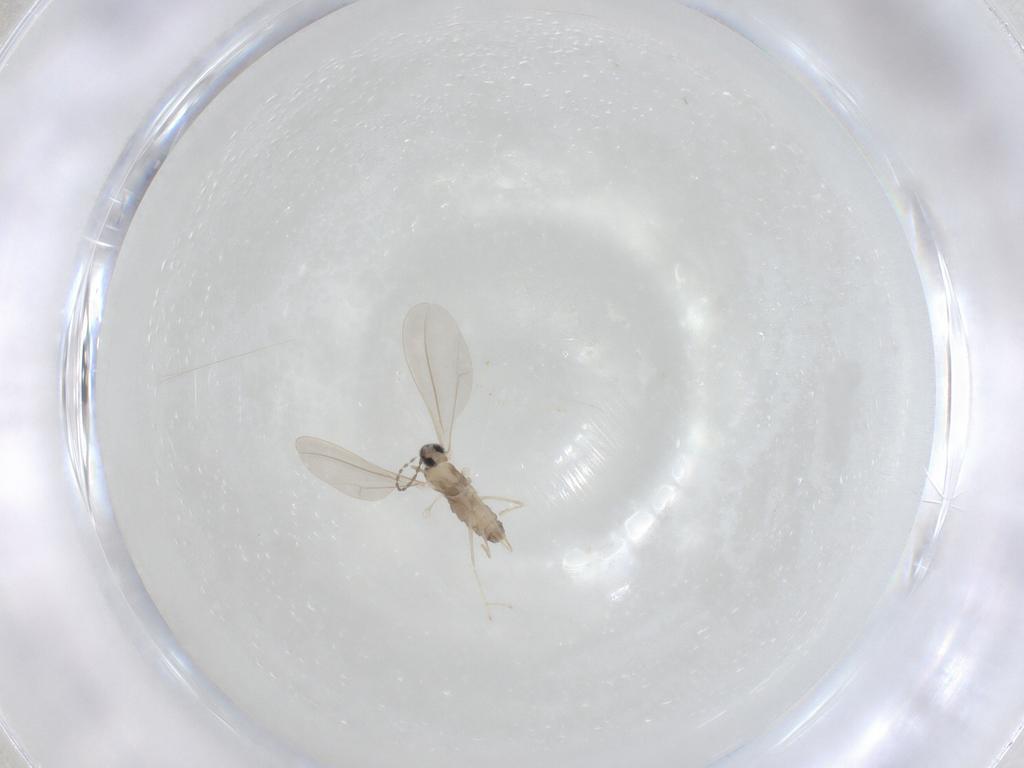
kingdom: Animalia
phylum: Arthropoda
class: Insecta
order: Diptera
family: Cecidomyiidae
